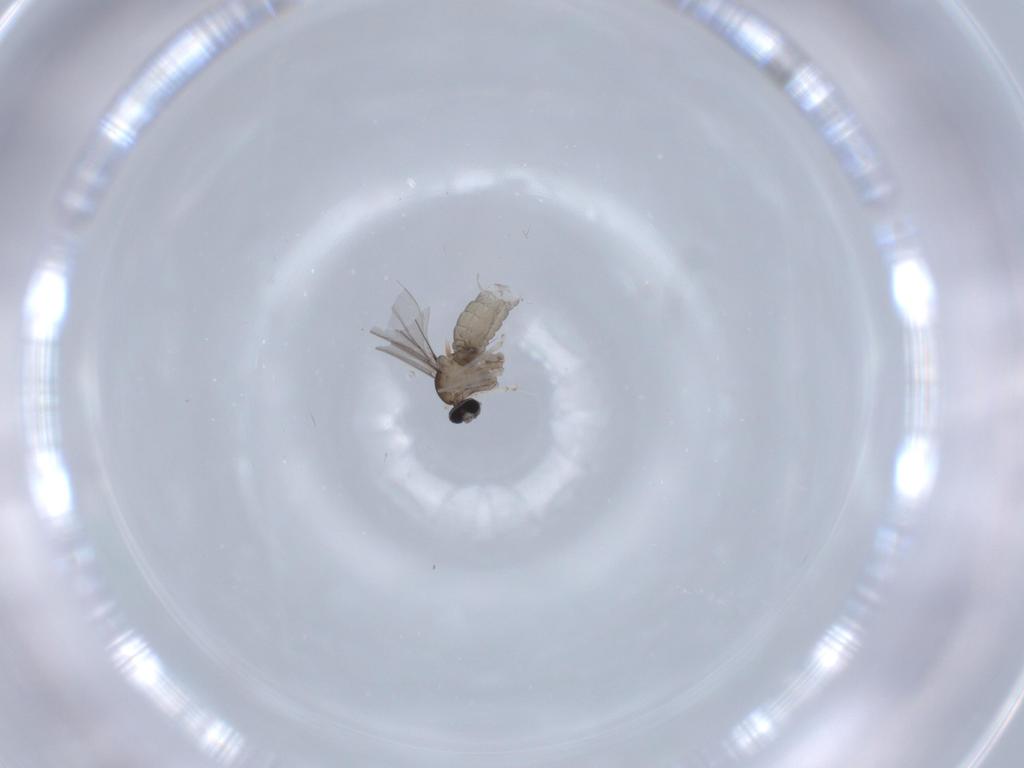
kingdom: Animalia
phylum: Arthropoda
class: Insecta
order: Diptera
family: Cecidomyiidae
